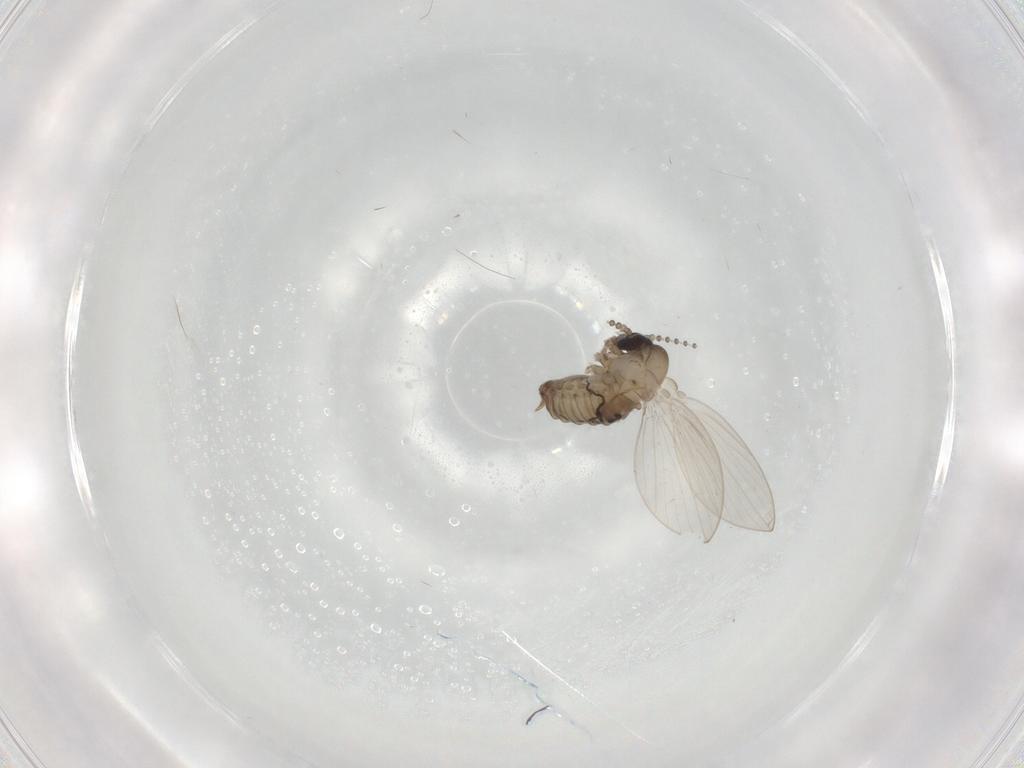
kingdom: Animalia
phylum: Arthropoda
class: Insecta
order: Diptera
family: Psychodidae
